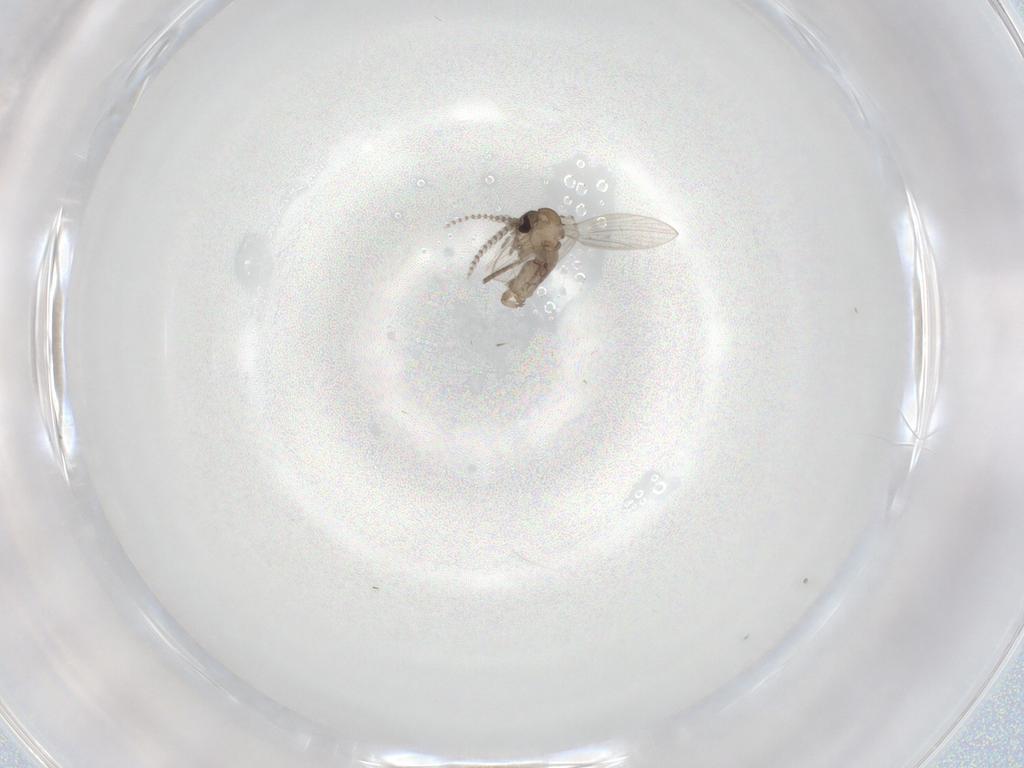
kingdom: Animalia
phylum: Arthropoda
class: Insecta
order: Diptera
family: Psychodidae
